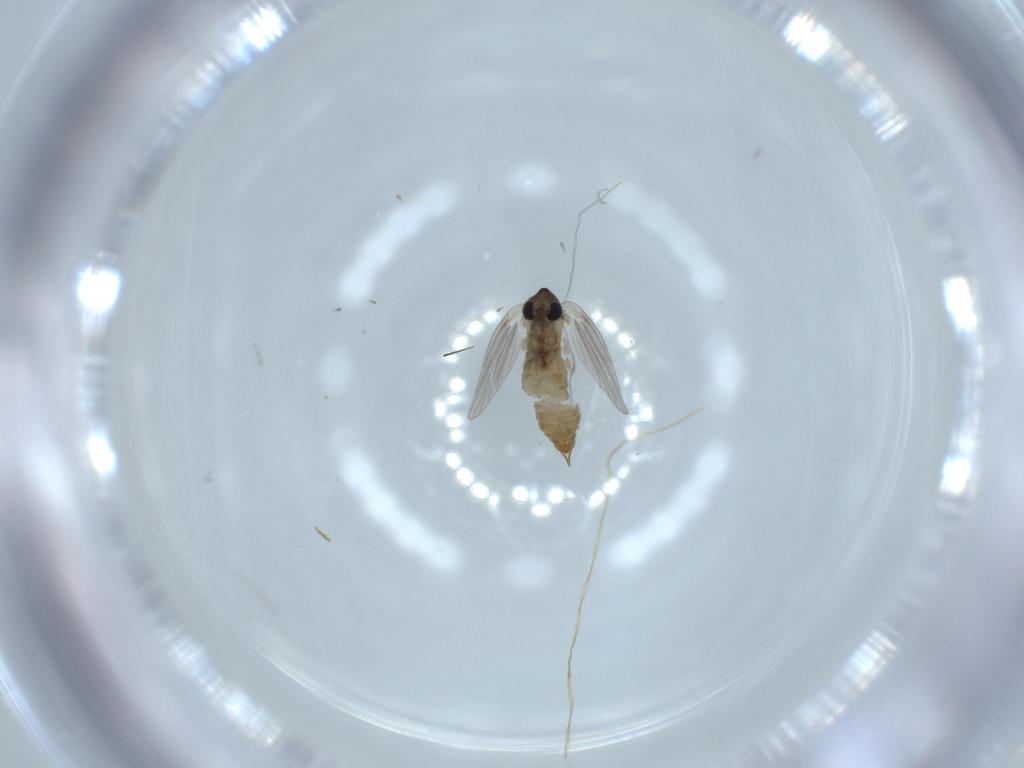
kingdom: Animalia
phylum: Arthropoda
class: Insecta
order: Diptera
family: Psychodidae
